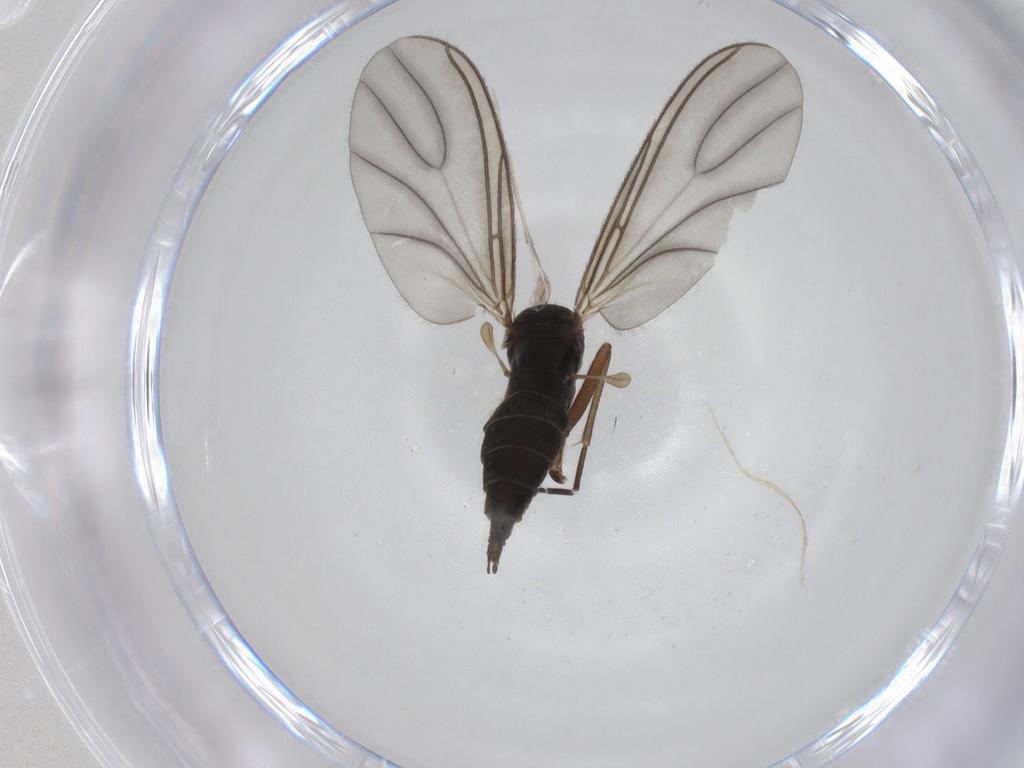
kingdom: Animalia
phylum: Arthropoda
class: Insecta
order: Diptera
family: Sciaridae
